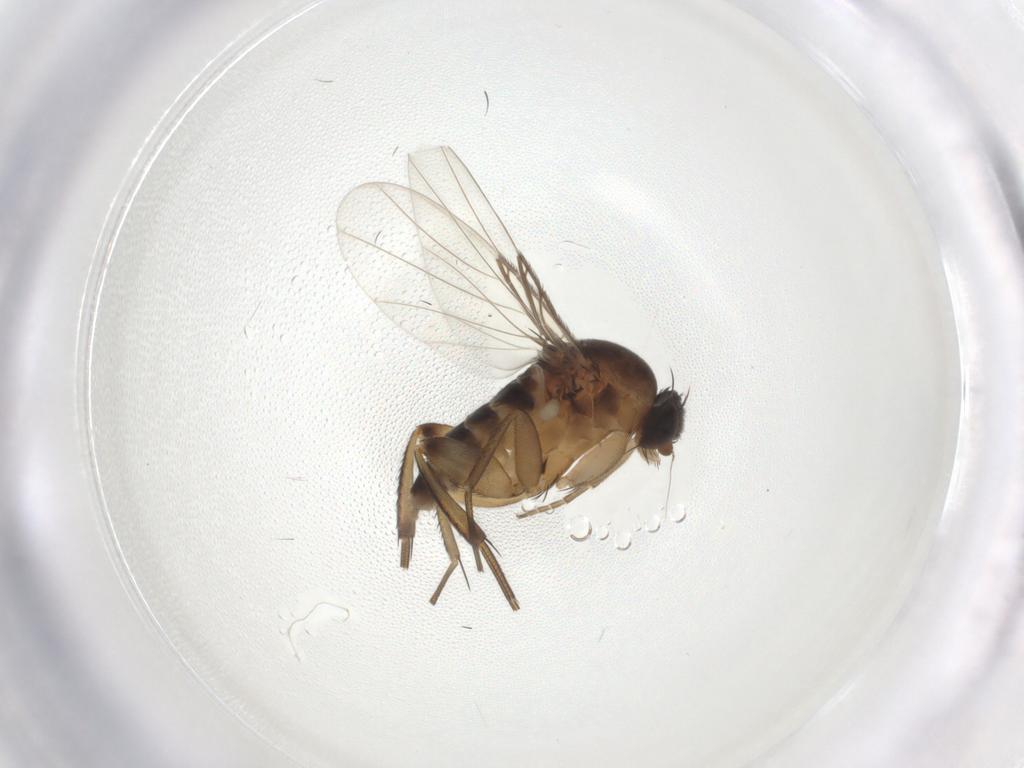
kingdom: Animalia
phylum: Arthropoda
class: Insecta
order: Diptera
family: Phoridae
